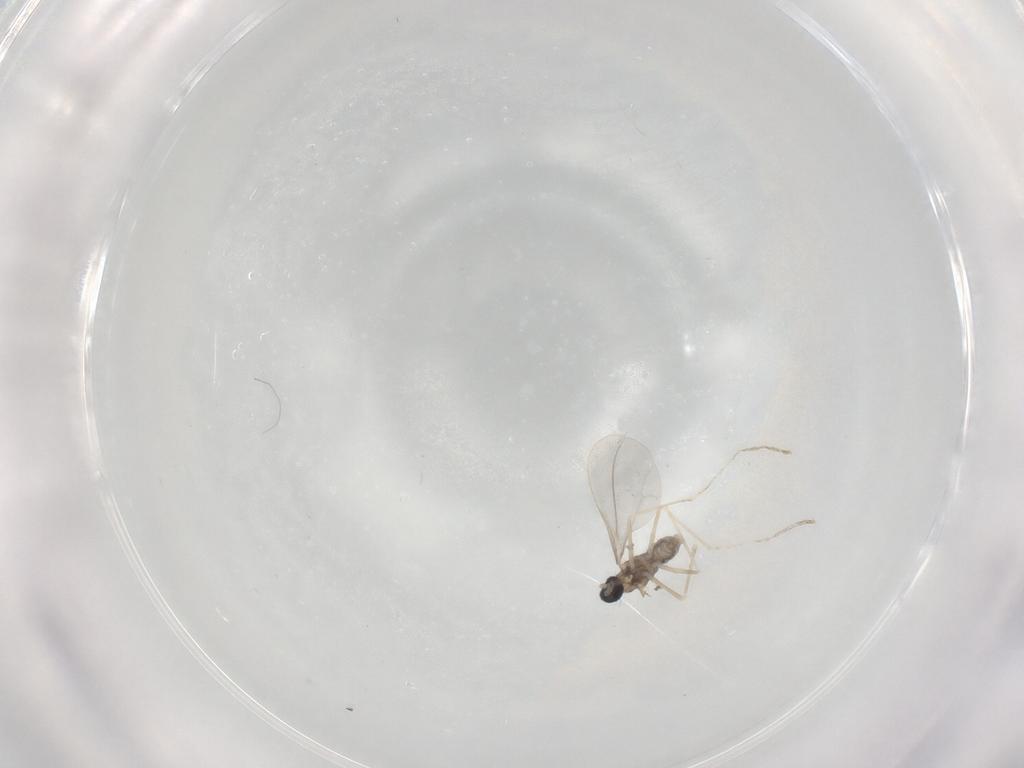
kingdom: Animalia
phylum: Arthropoda
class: Insecta
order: Diptera
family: Cecidomyiidae
